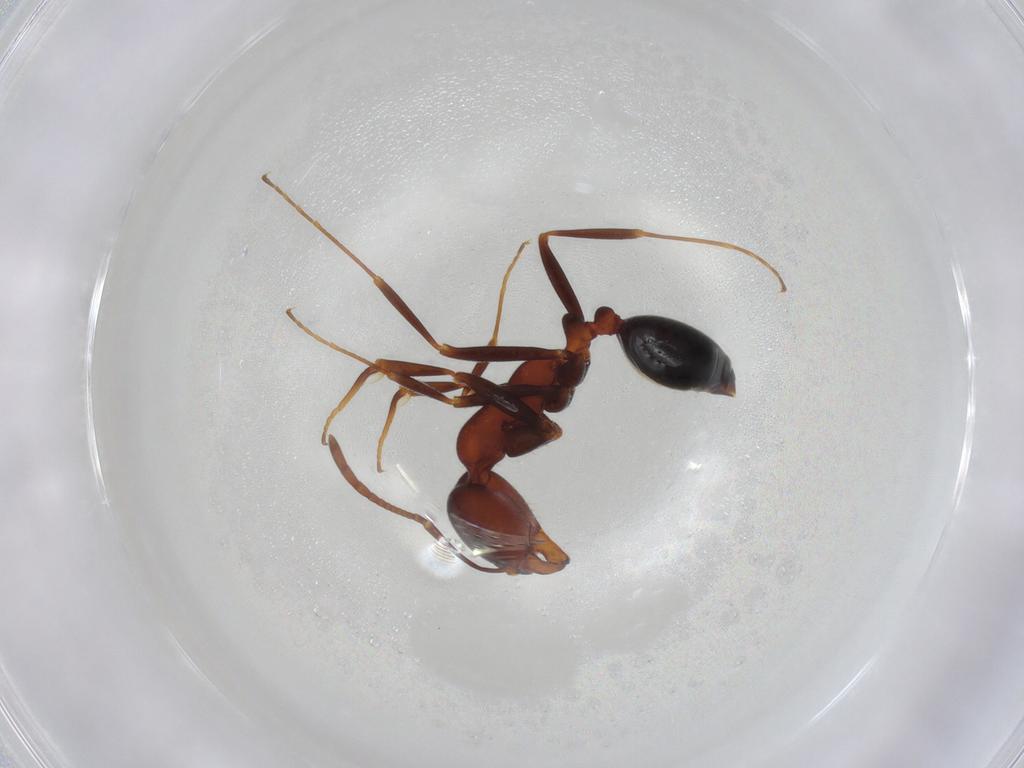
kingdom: Animalia
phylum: Arthropoda
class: Insecta
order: Hymenoptera
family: Formicidae
